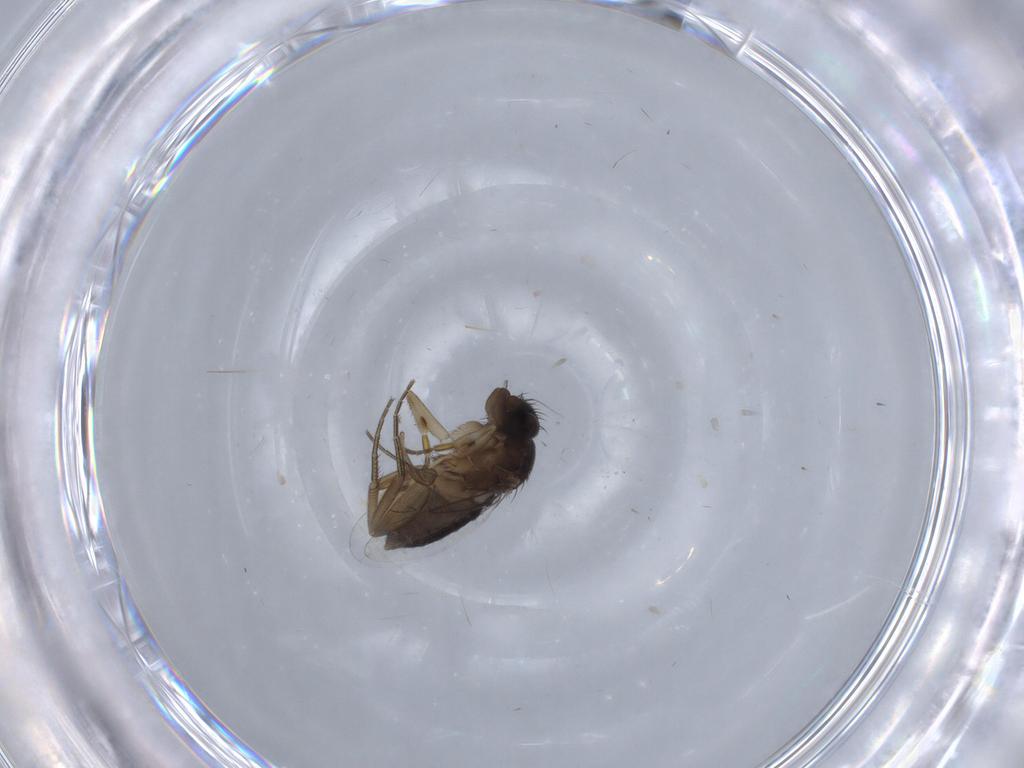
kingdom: Animalia
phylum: Arthropoda
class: Insecta
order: Diptera
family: Phoridae
